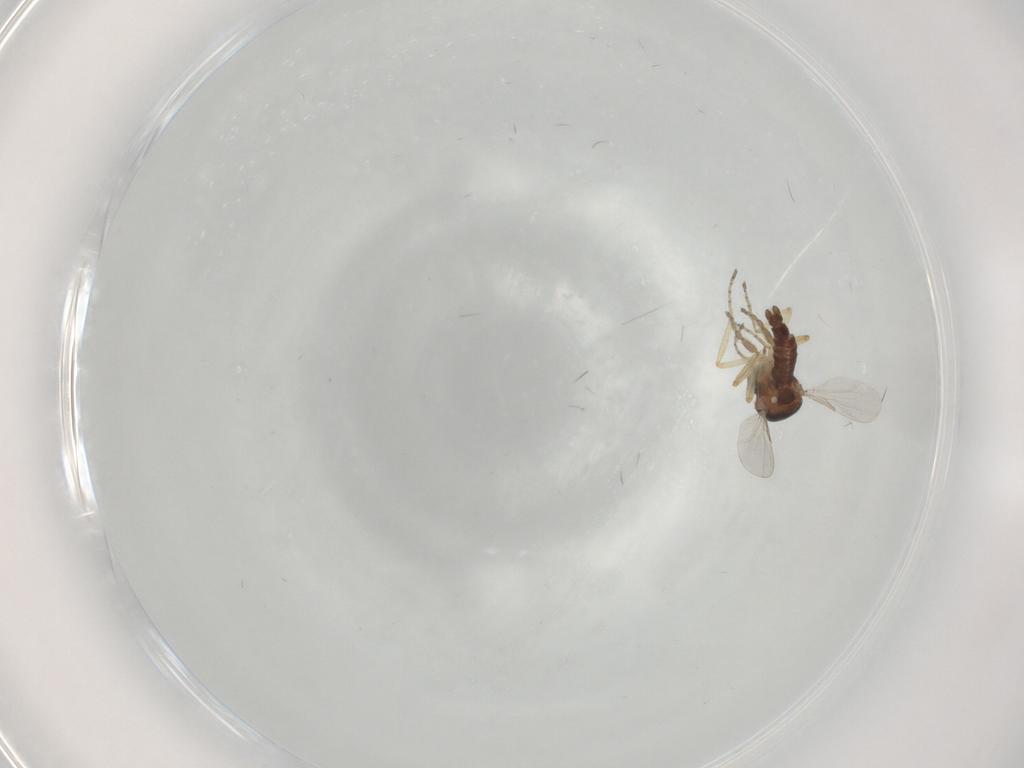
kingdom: Animalia
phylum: Arthropoda
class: Insecta
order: Diptera
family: Ceratopogonidae
